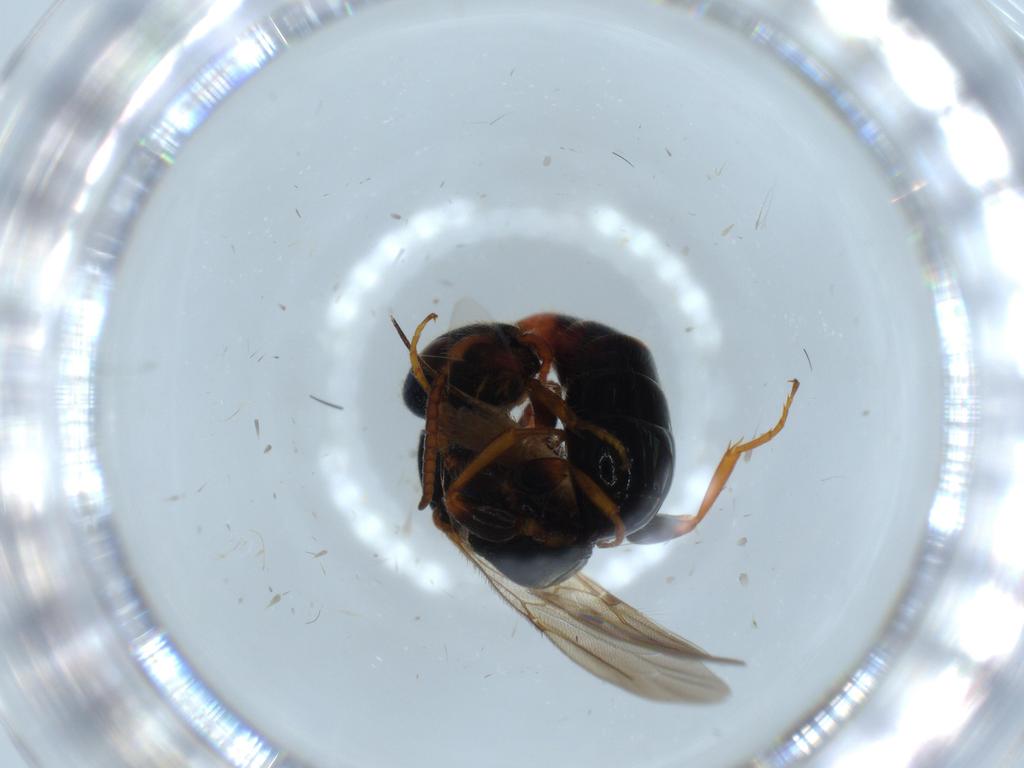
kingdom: Animalia
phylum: Arthropoda
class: Insecta
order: Hymenoptera
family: Bethylidae
